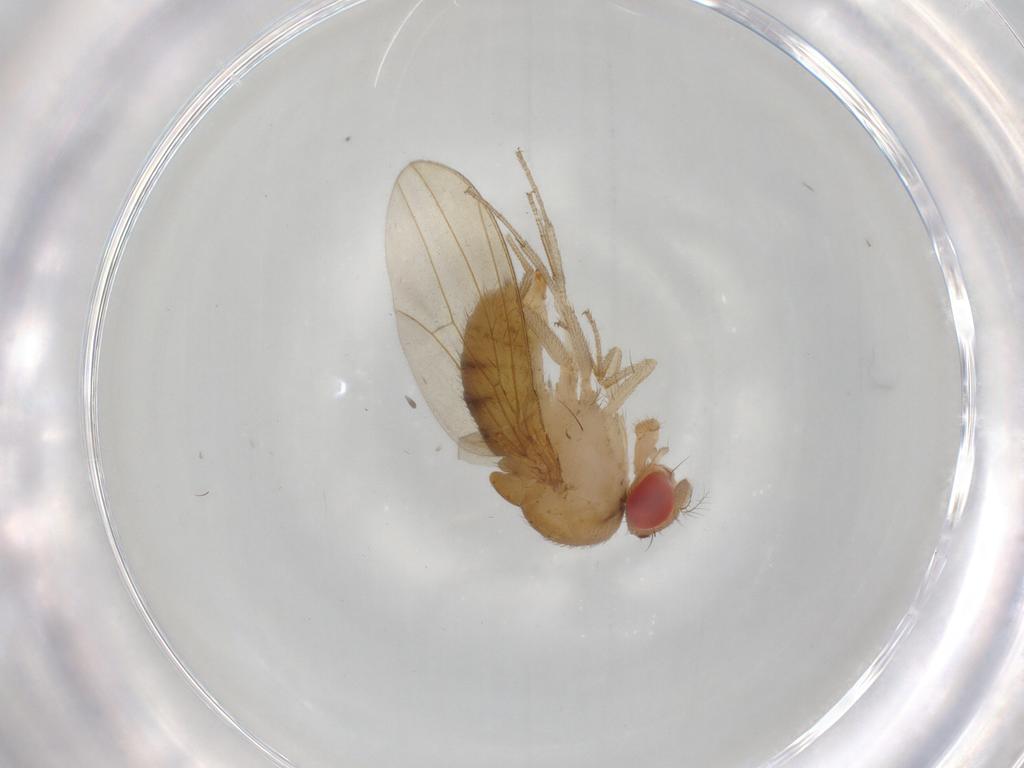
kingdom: Animalia
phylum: Arthropoda
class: Insecta
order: Diptera
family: Drosophilidae
